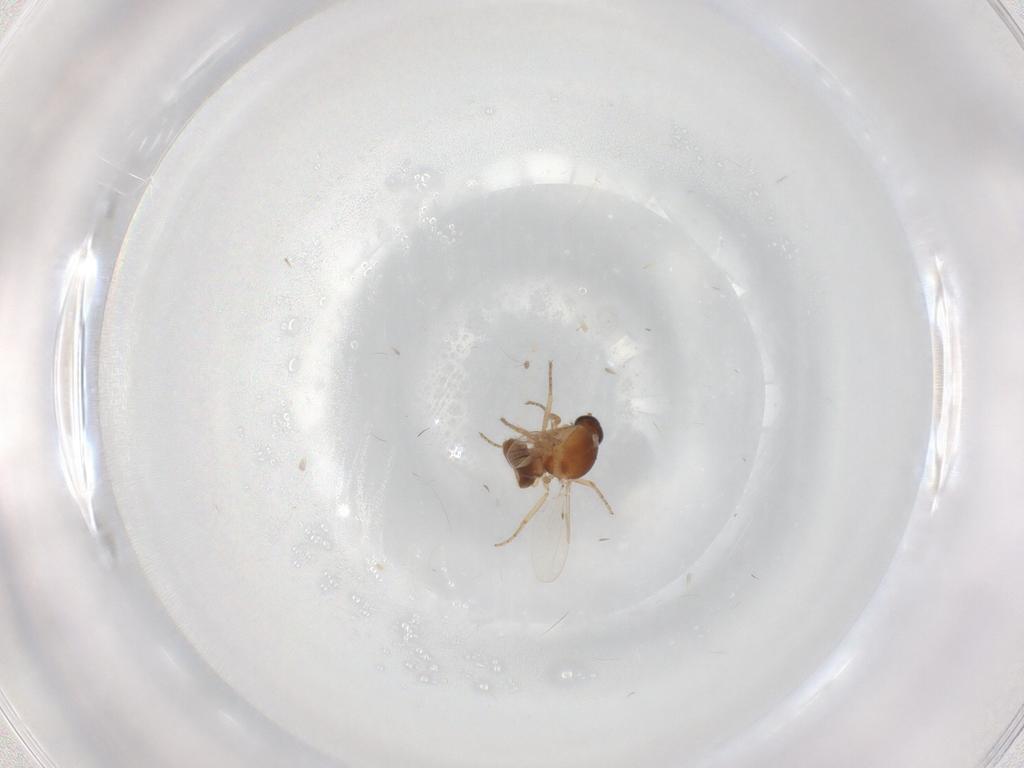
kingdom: Animalia
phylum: Arthropoda
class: Insecta
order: Diptera
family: Ceratopogonidae
